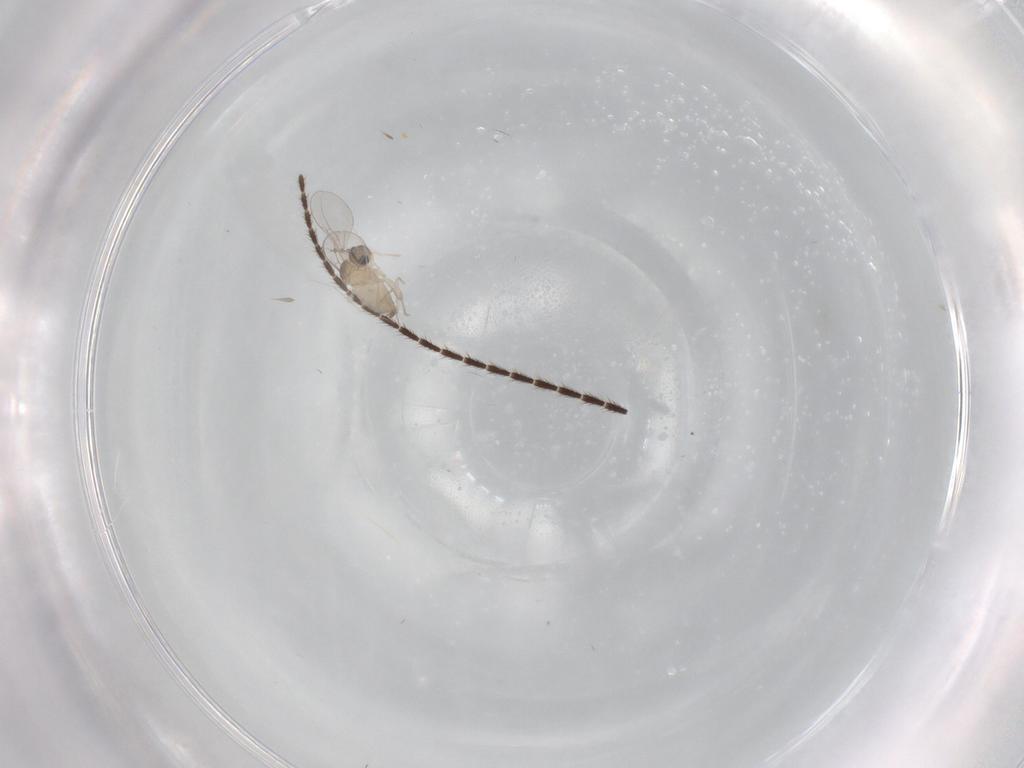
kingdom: Animalia
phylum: Arthropoda
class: Insecta
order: Diptera
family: Cecidomyiidae
